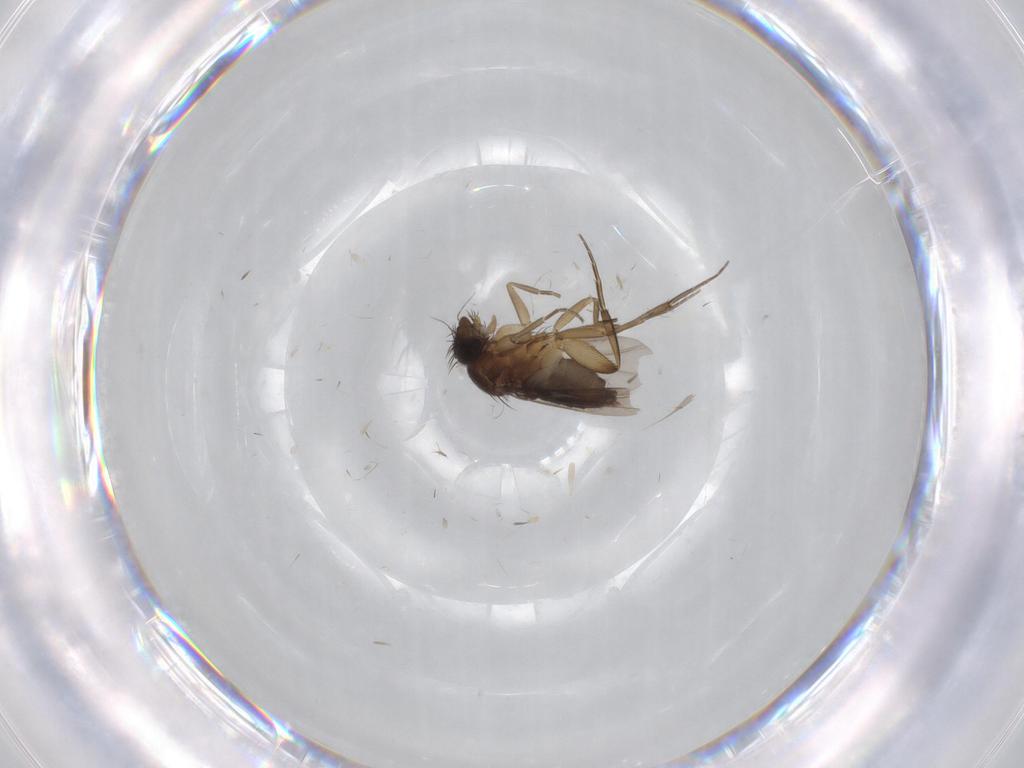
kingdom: Animalia
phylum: Arthropoda
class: Insecta
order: Diptera
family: Phoridae
